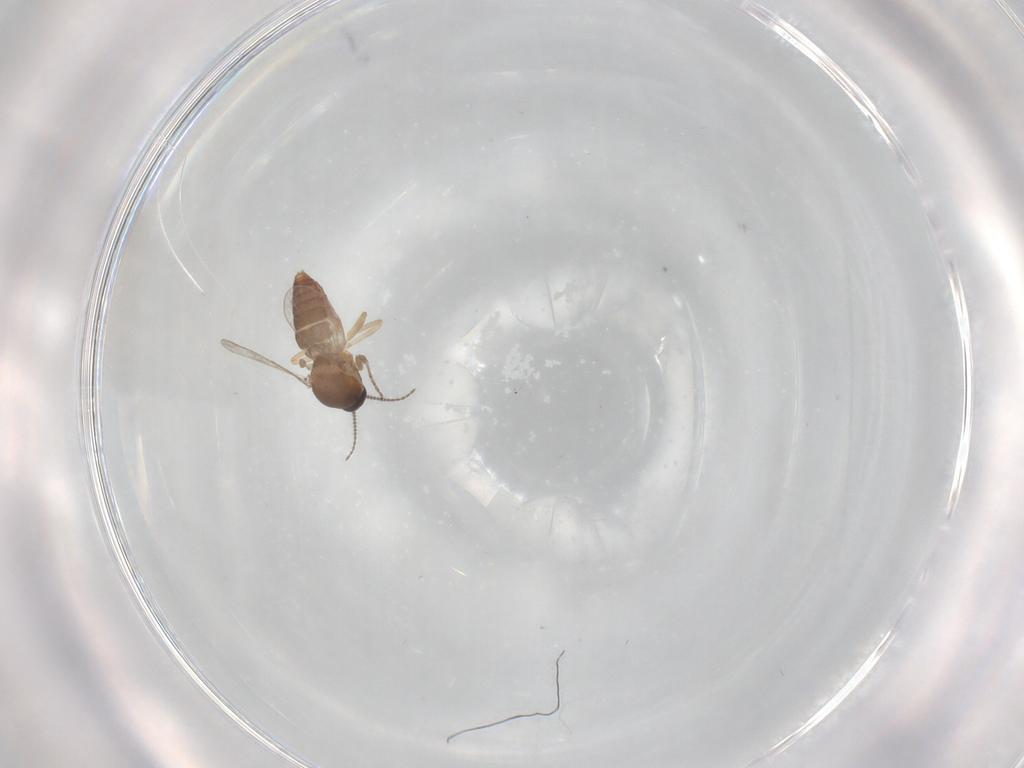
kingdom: Animalia
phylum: Arthropoda
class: Insecta
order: Diptera
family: Ceratopogonidae
